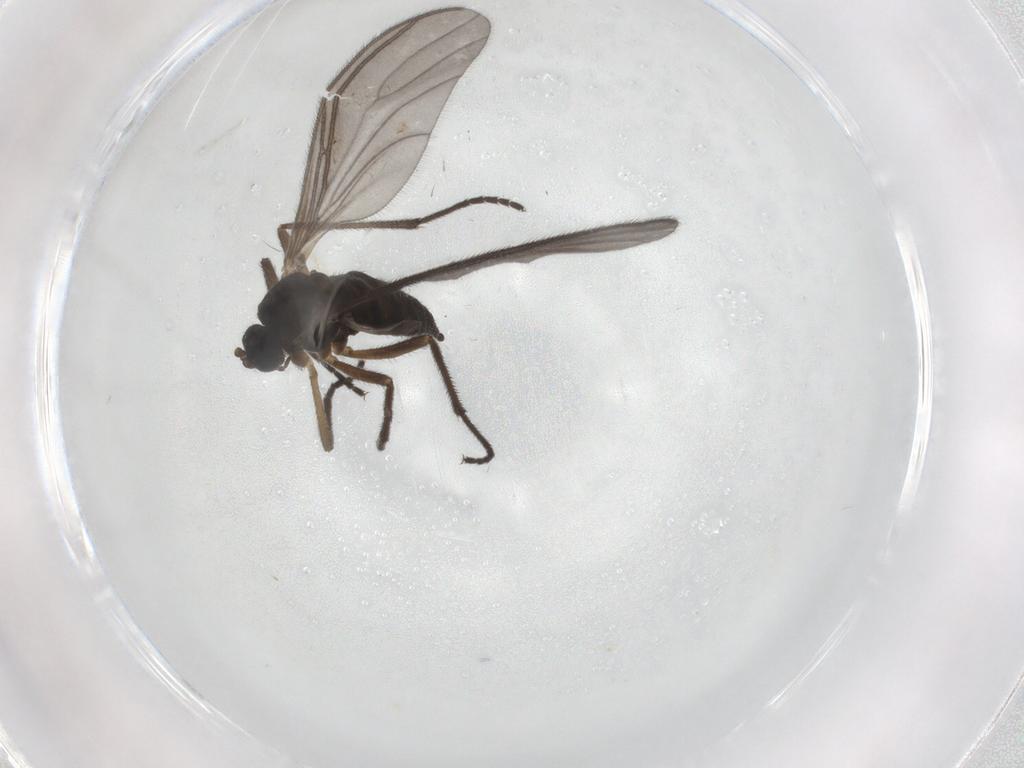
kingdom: Animalia
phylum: Arthropoda
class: Insecta
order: Diptera
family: Sciaridae
